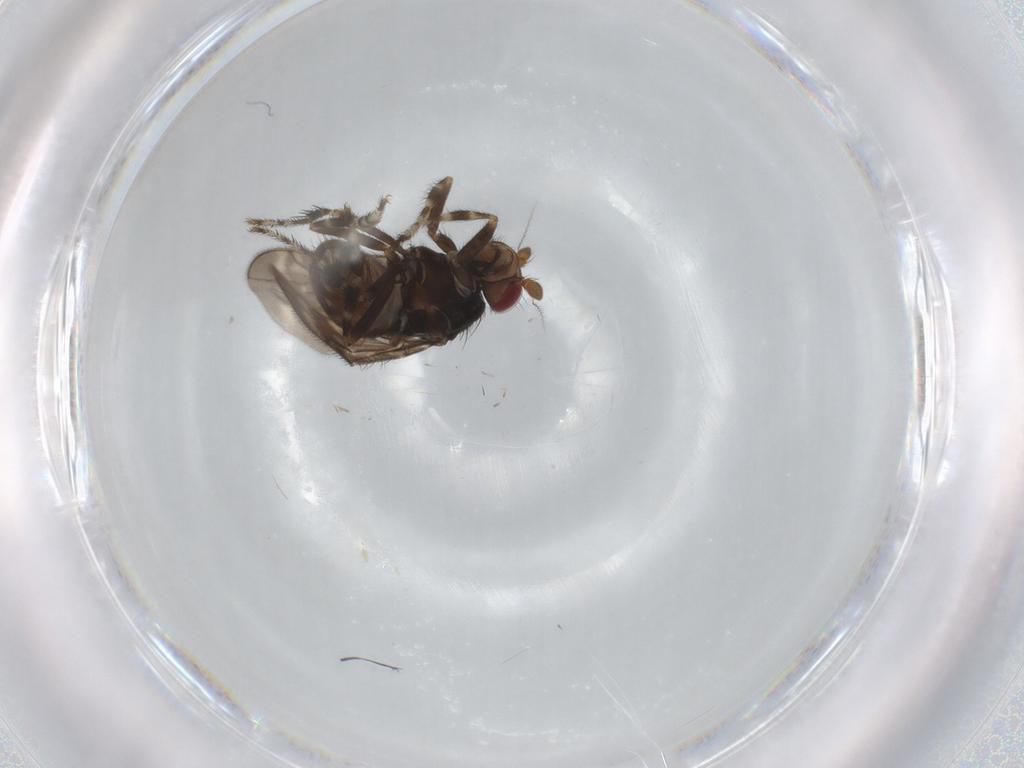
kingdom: Animalia
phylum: Arthropoda
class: Insecta
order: Diptera
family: Sphaeroceridae
